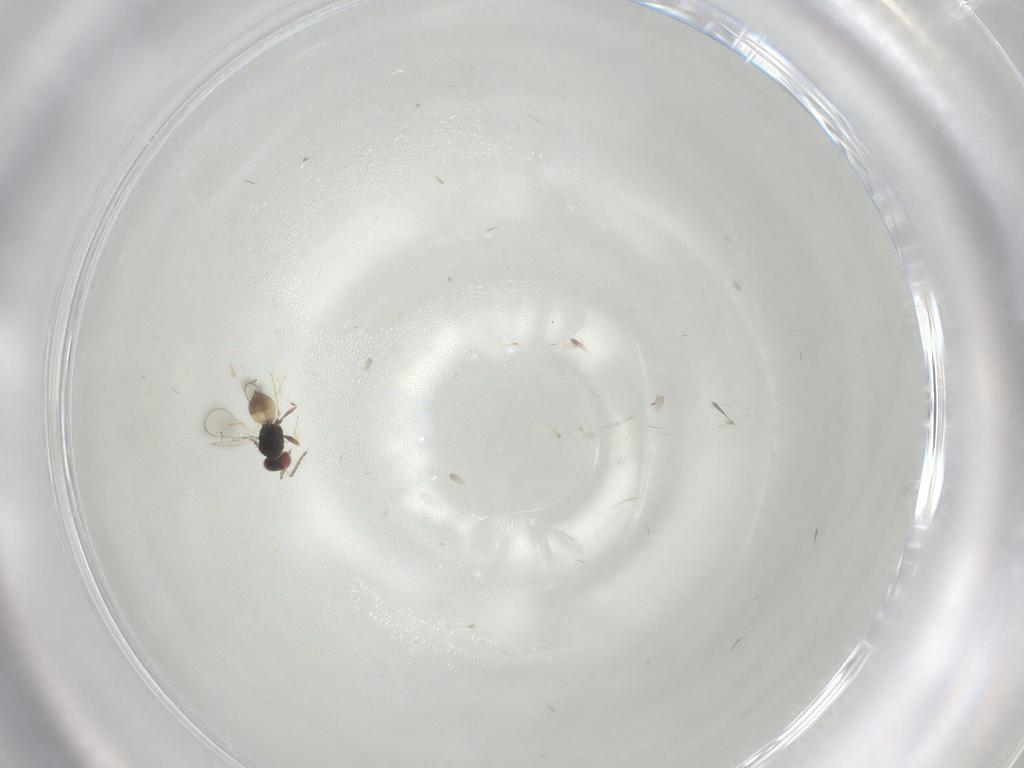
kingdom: Animalia
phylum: Arthropoda
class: Insecta
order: Hymenoptera
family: Eulophidae
